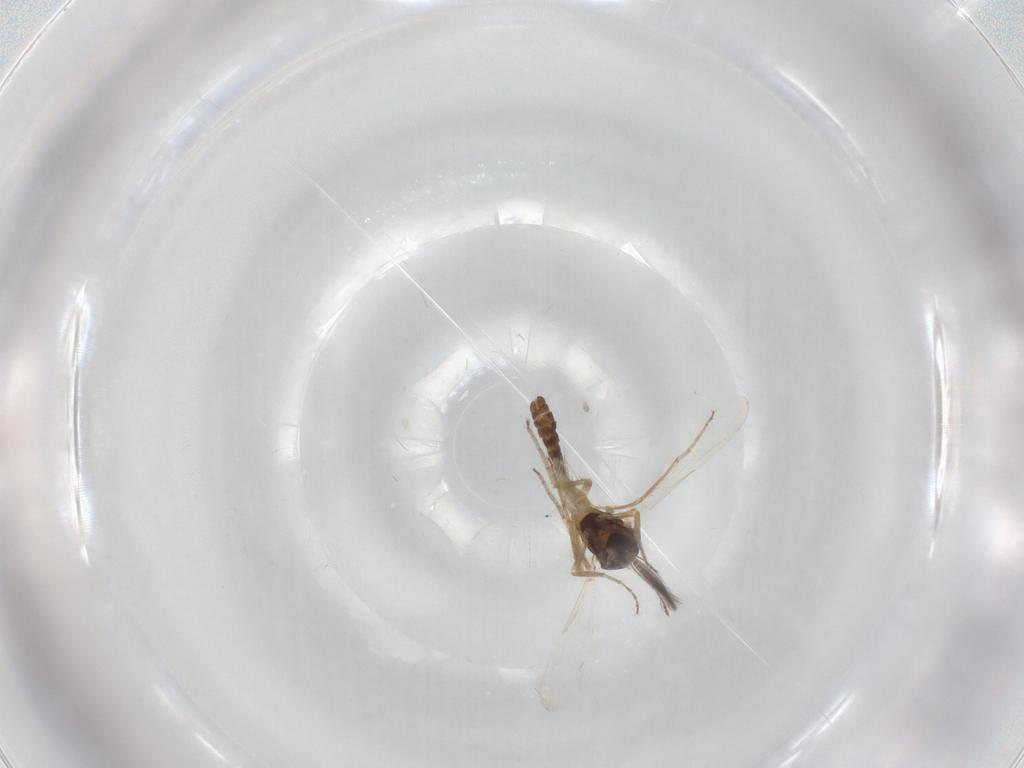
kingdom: Animalia
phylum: Arthropoda
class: Insecta
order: Diptera
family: Ceratopogonidae
